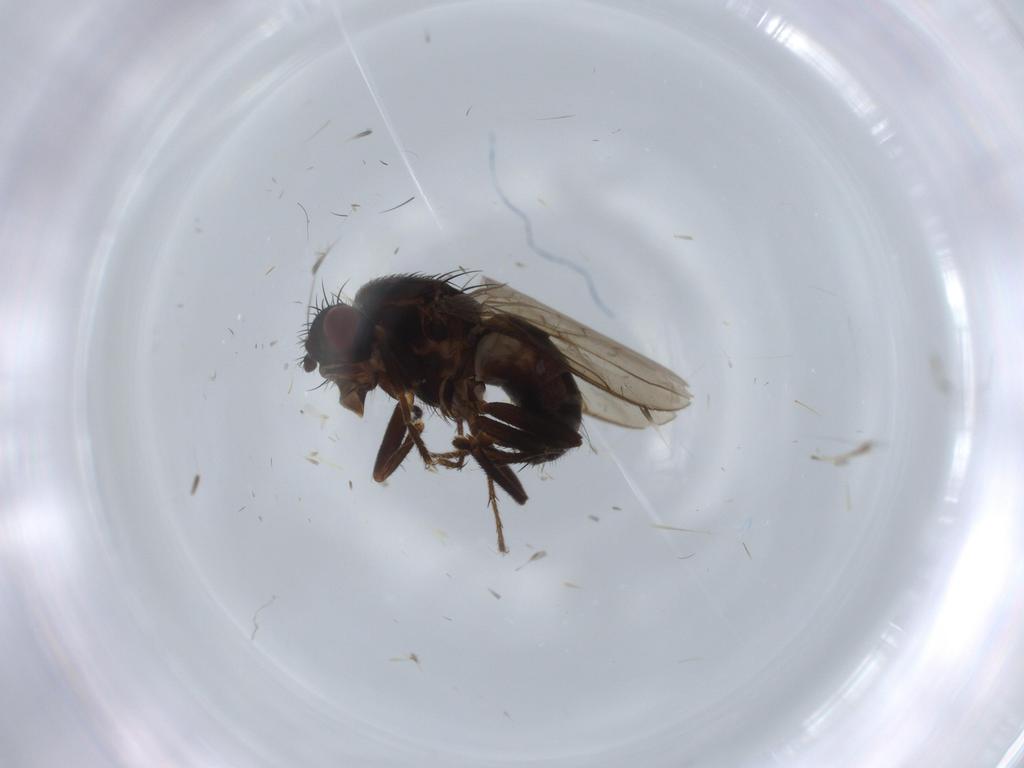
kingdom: Animalia
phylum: Arthropoda
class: Insecta
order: Diptera
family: Sphaeroceridae
